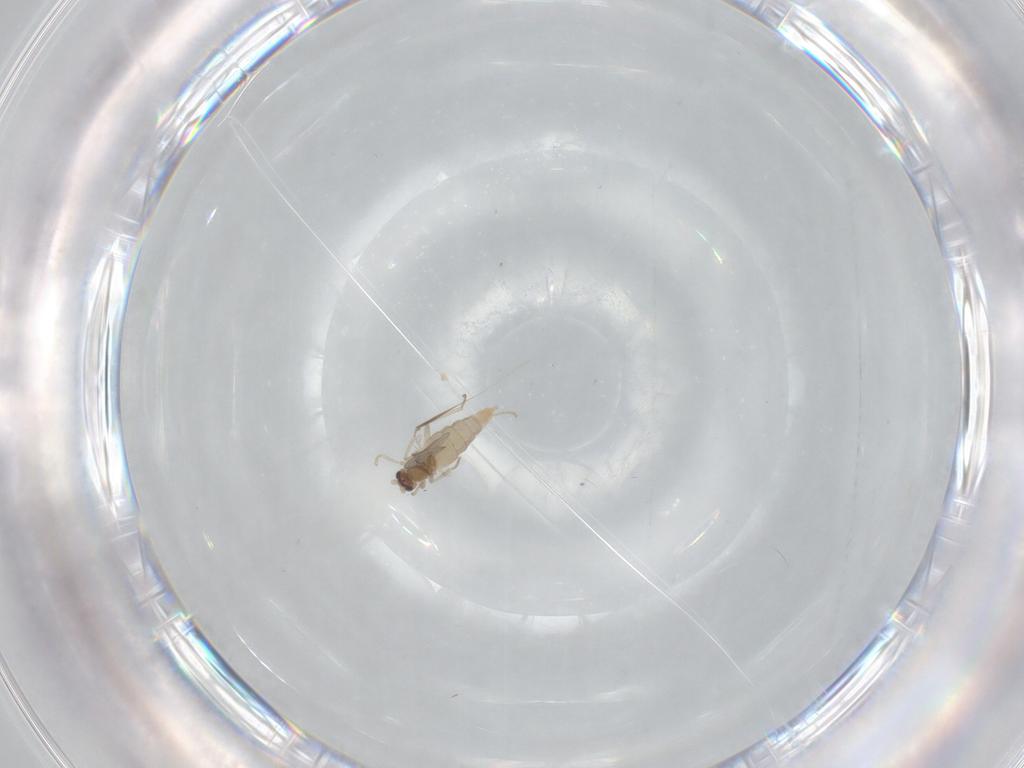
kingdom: Animalia
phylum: Arthropoda
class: Insecta
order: Diptera
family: Cecidomyiidae
